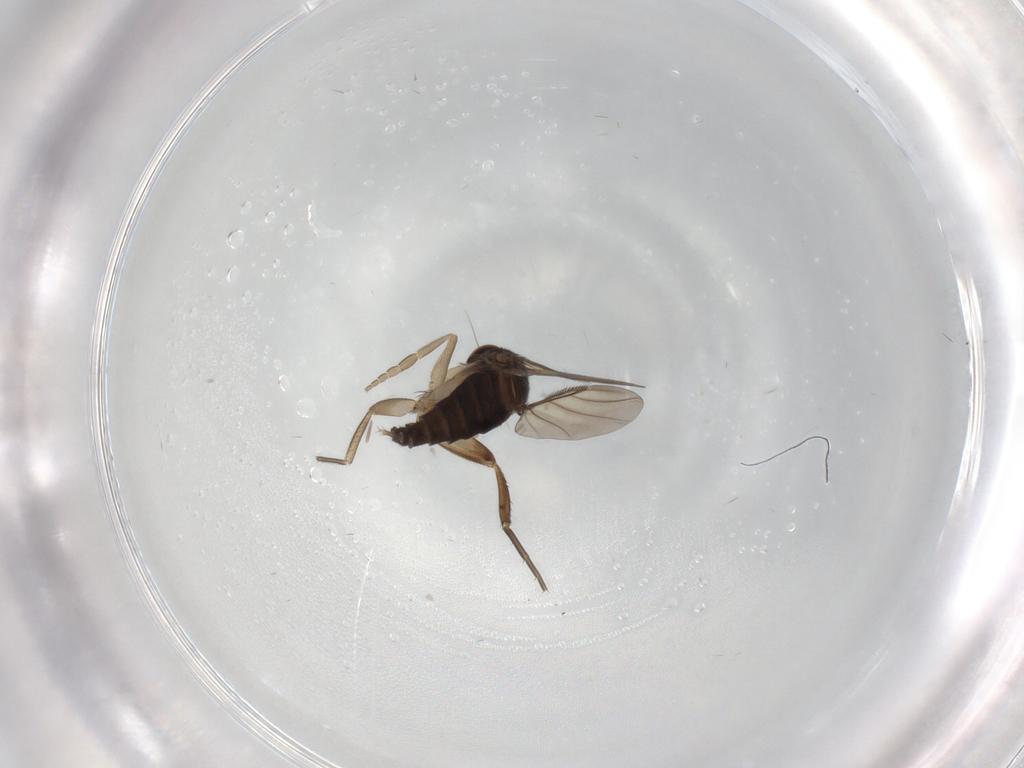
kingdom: Animalia
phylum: Arthropoda
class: Insecta
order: Diptera
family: Phoridae
